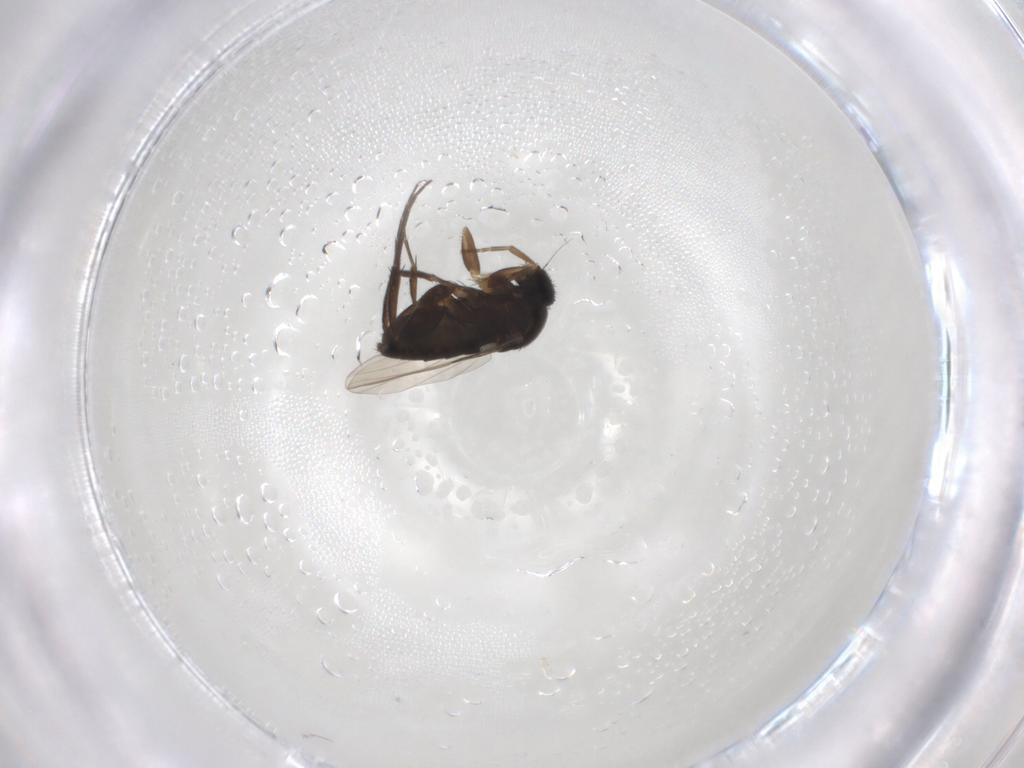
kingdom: Animalia
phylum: Arthropoda
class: Insecta
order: Diptera
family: Phoridae
